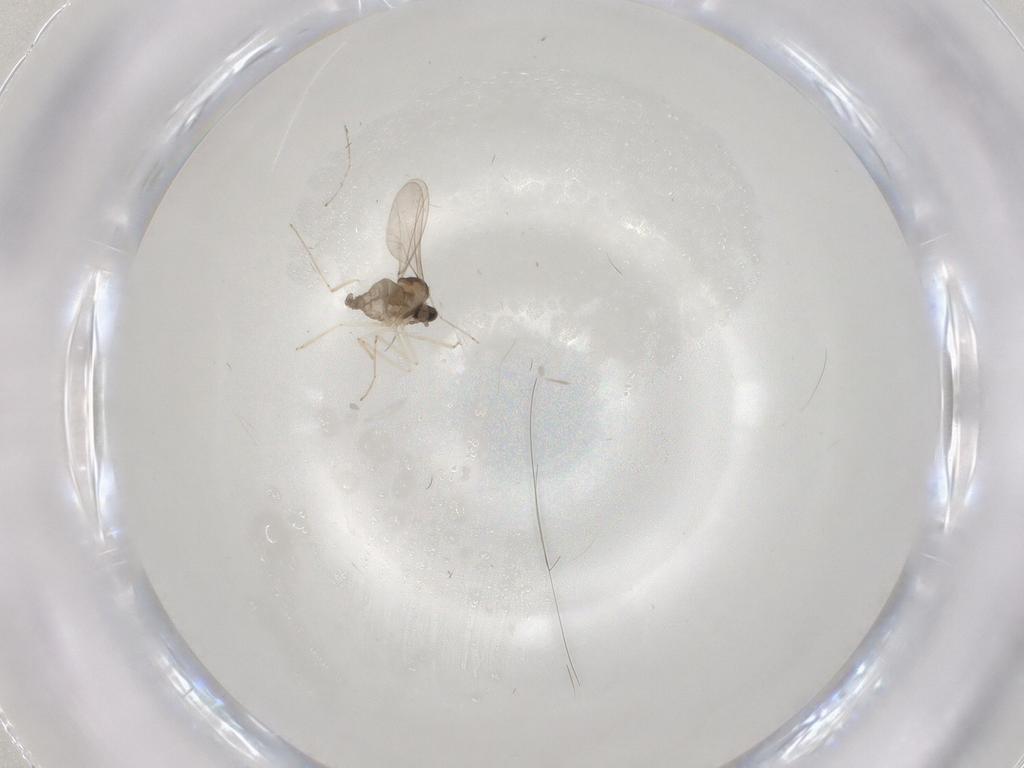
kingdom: Animalia
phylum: Arthropoda
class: Insecta
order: Diptera
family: Cecidomyiidae
